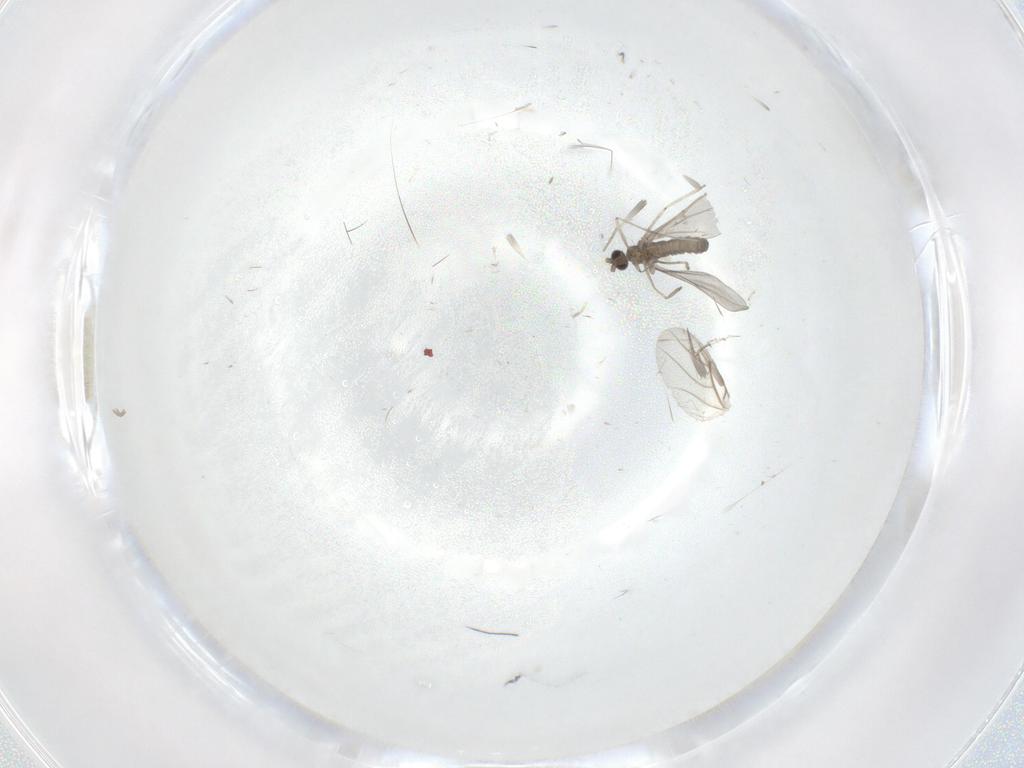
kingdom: Animalia
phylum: Arthropoda
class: Insecta
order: Diptera
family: Cecidomyiidae
